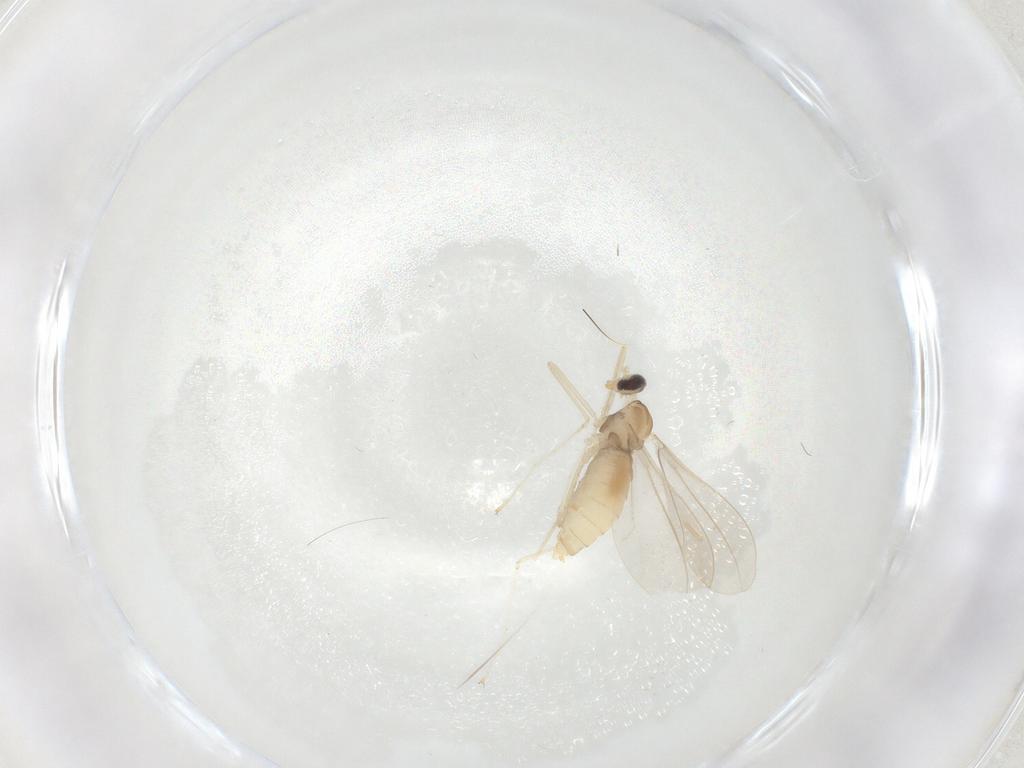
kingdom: Animalia
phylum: Arthropoda
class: Insecta
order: Diptera
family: Cecidomyiidae
